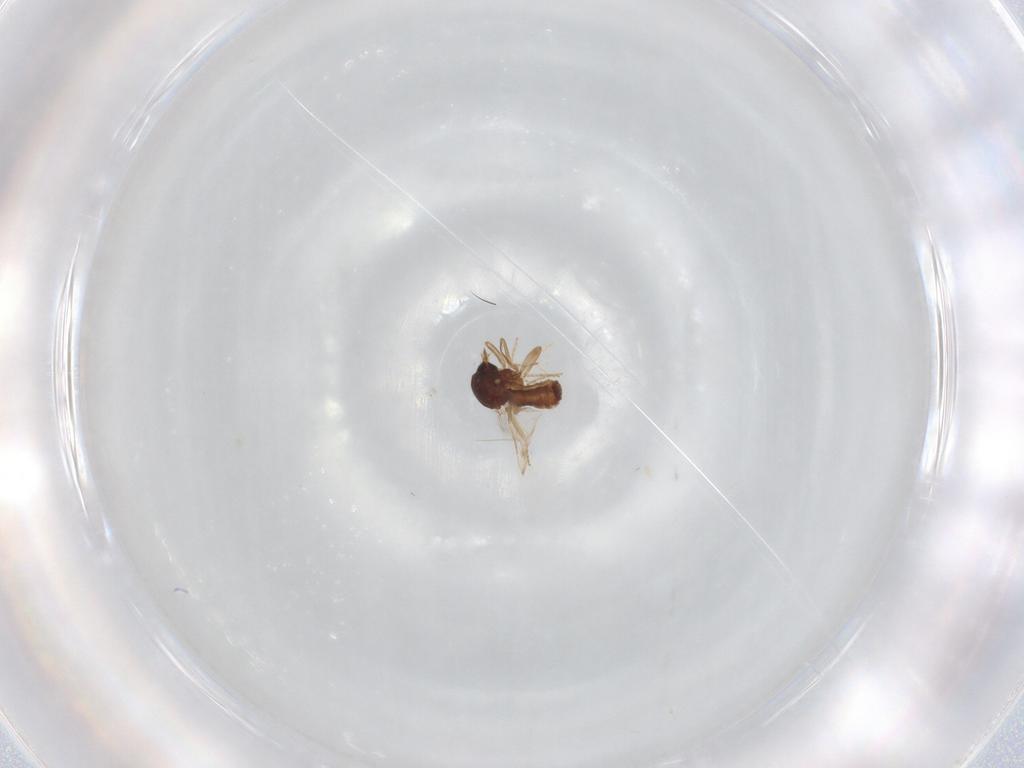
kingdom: Animalia
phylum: Arthropoda
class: Insecta
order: Diptera
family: Ceratopogonidae
